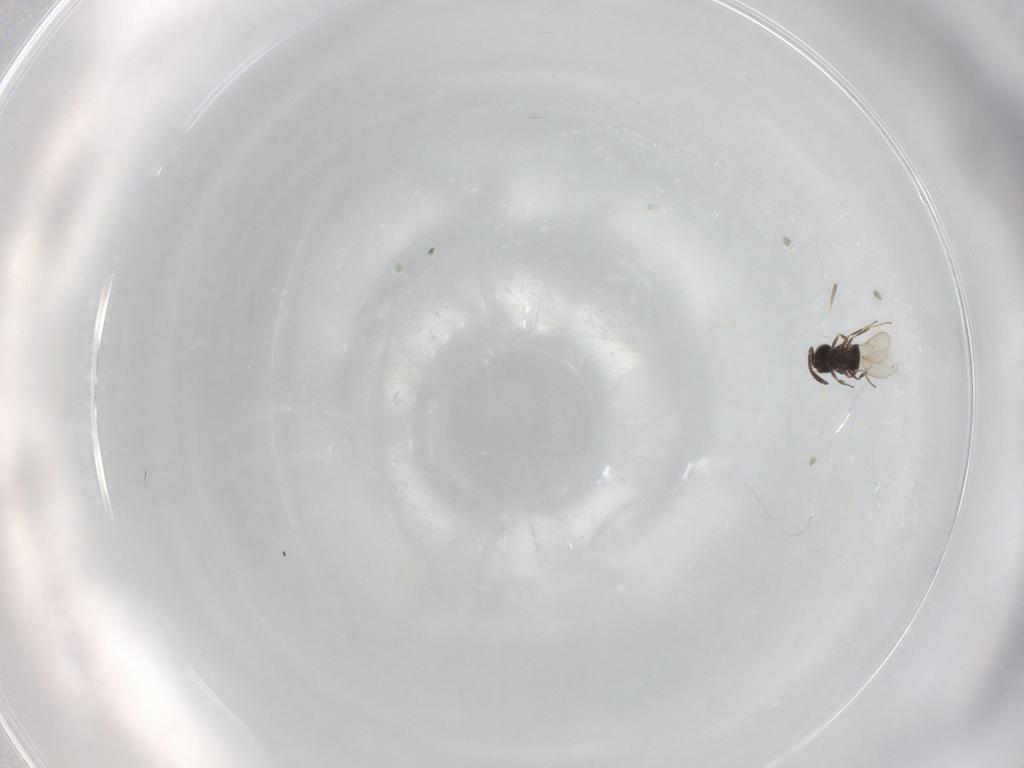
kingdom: Animalia
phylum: Arthropoda
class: Insecta
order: Hymenoptera
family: Scelionidae
